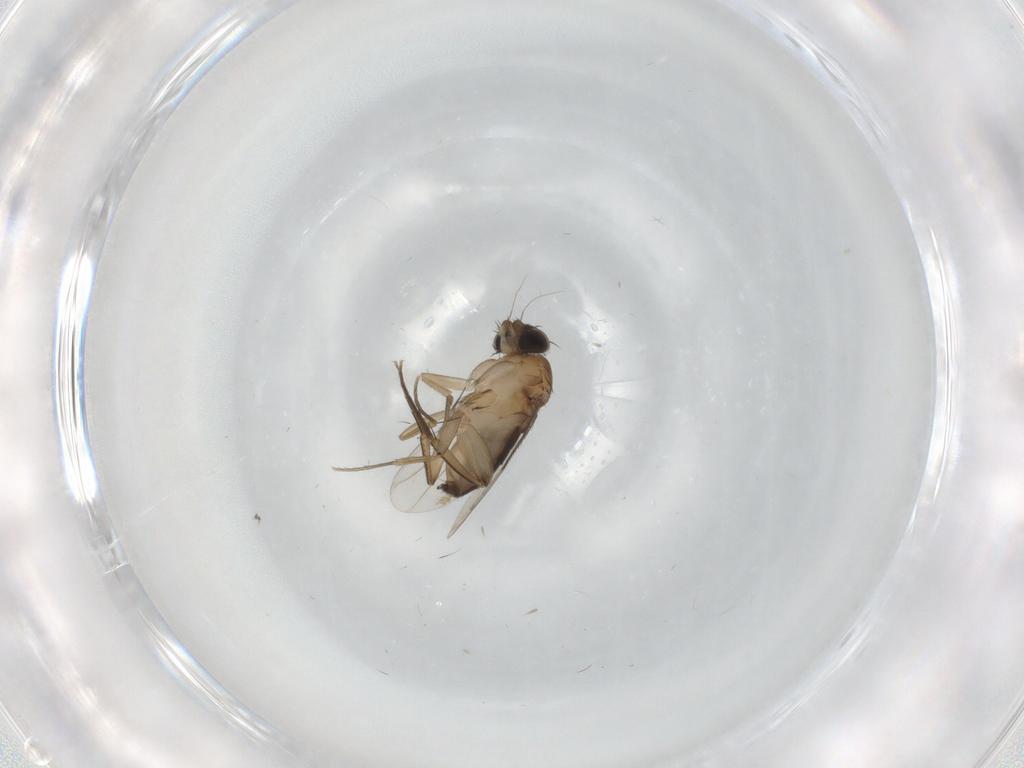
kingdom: Animalia
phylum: Arthropoda
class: Insecta
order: Diptera
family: Phoridae
